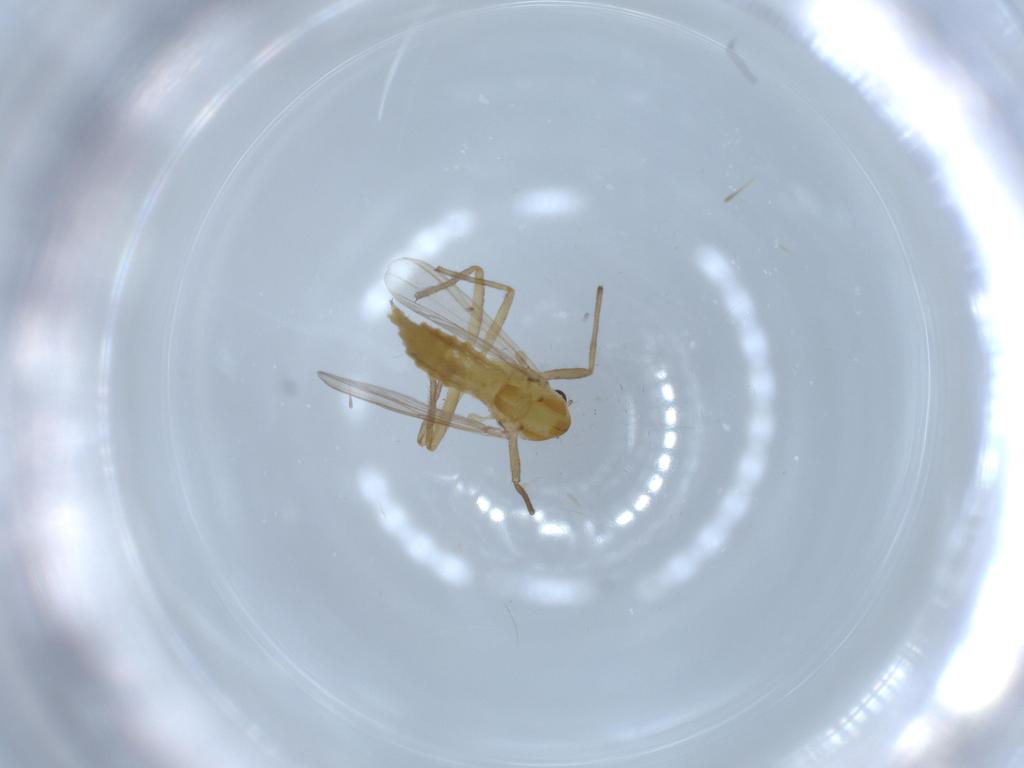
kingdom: Animalia
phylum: Arthropoda
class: Insecta
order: Diptera
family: Chironomidae
